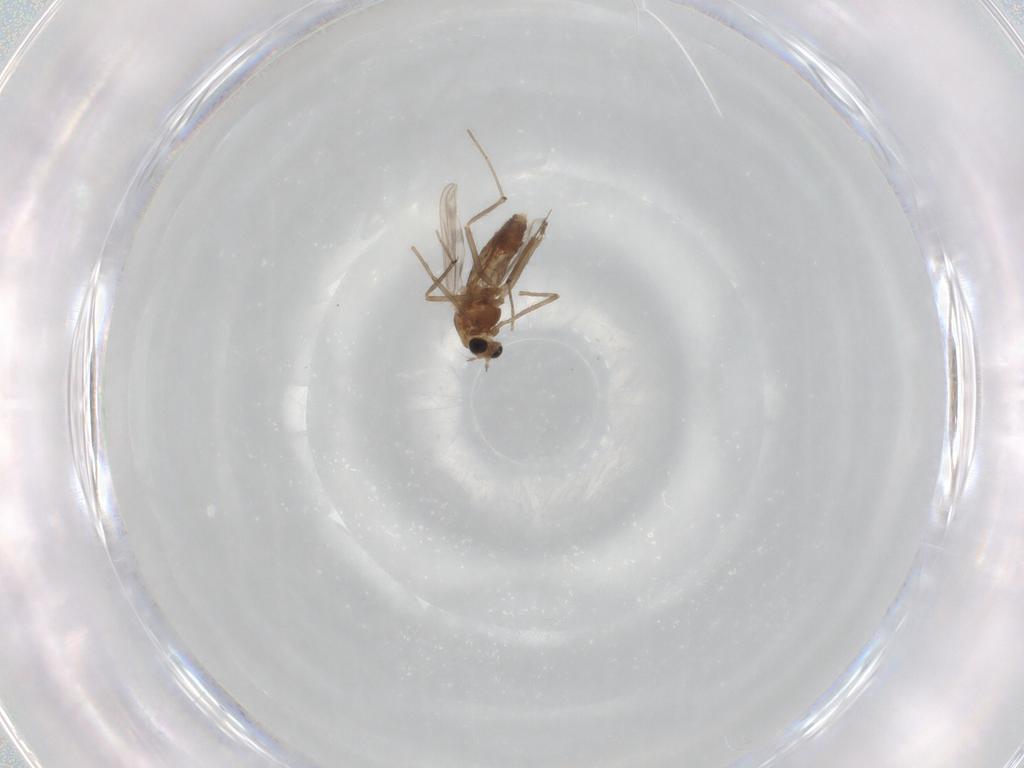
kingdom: Animalia
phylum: Arthropoda
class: Insecta
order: Diptera
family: Chironomidae
